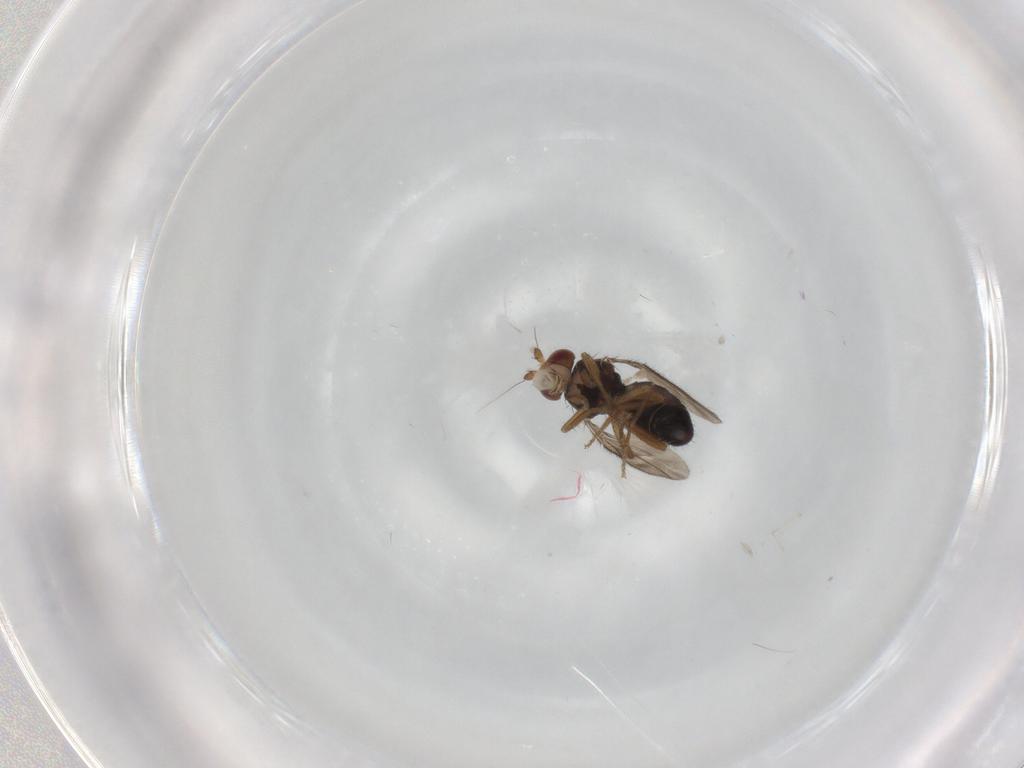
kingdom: Animalia
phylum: Arthropoda
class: Insecta
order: Diptera
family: Sphaeroceridae
